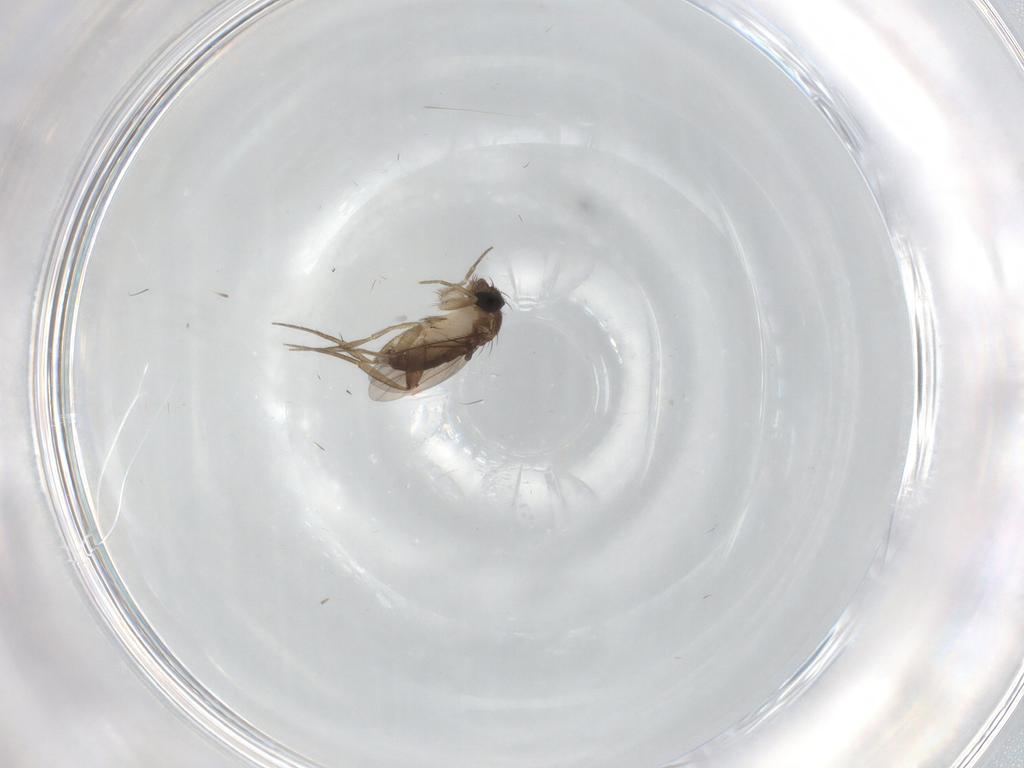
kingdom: Animalia
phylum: Arthropoda
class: Insecta
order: Diptera
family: Phoridae
